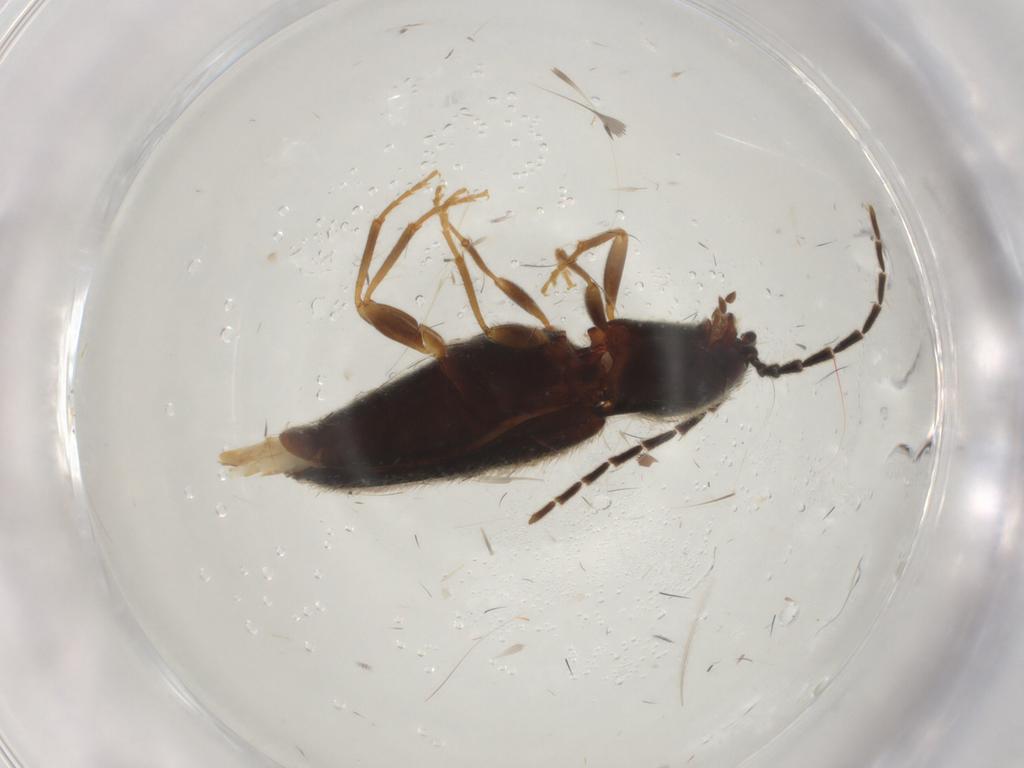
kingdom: Animalia
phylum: Arthropoda
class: Insecta
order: Coleoptera
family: Elateridae
